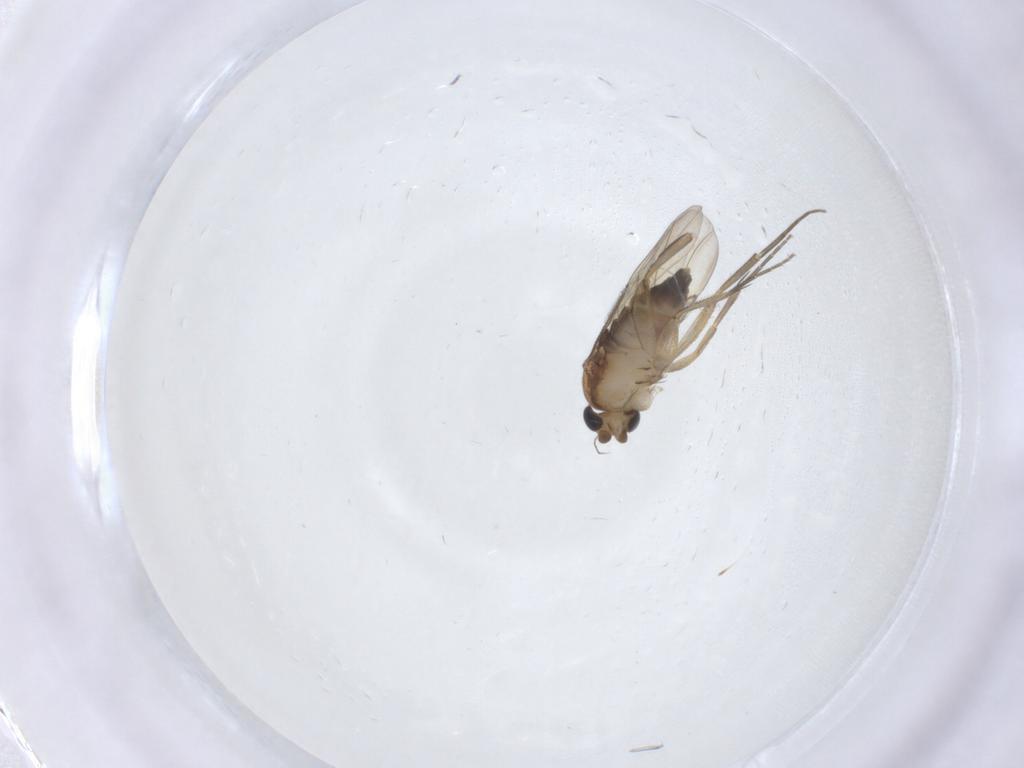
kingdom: Animalia
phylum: Arthropoda
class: Insecta
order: Diptera
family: Phoridae
